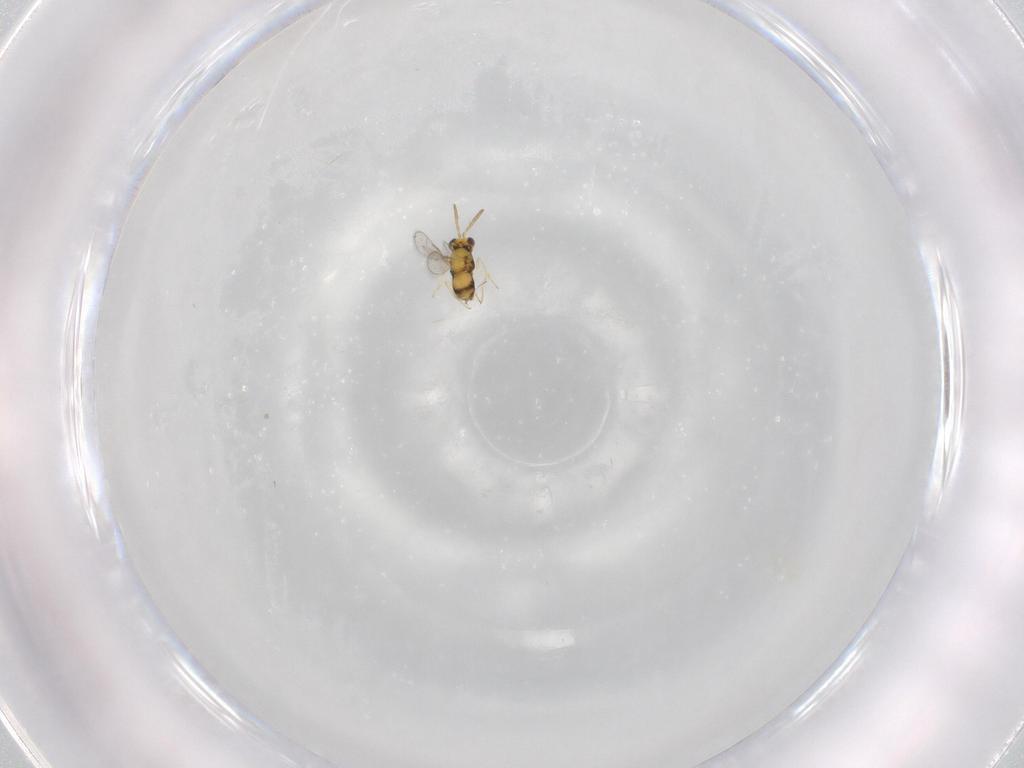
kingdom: Animalia
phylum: Arthropoda
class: Insecta
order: Hymenoptera
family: Aphelinidae
